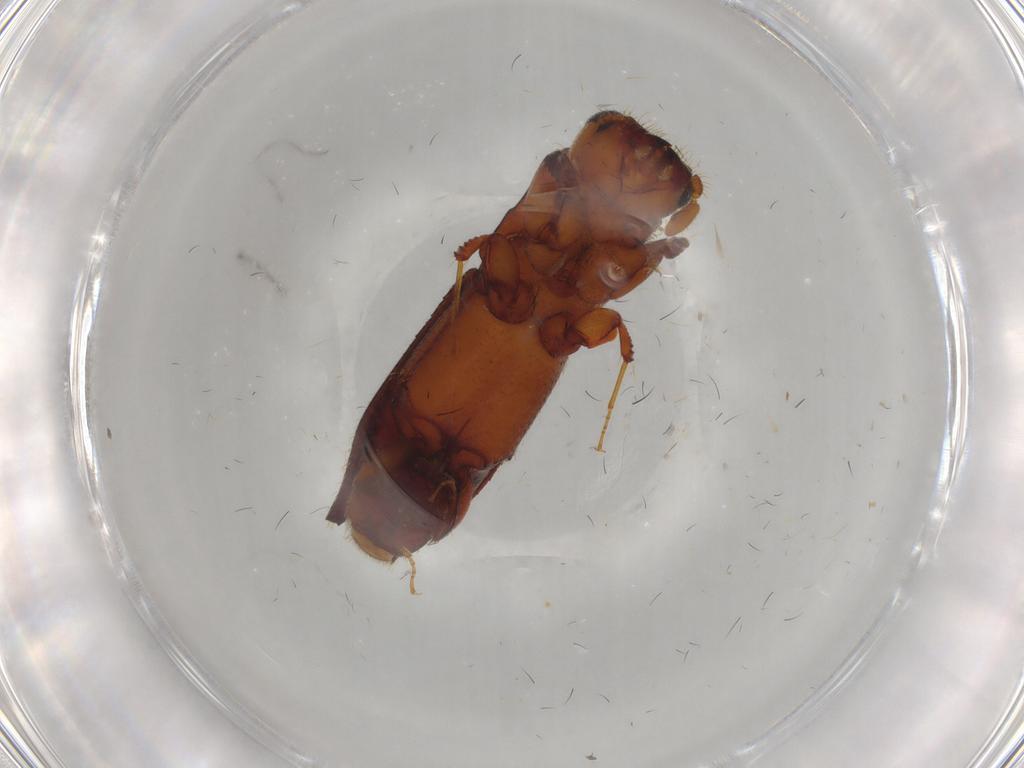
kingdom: Animalia
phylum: Arthropoda
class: Insecta
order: Coleoptera
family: Curculionidae
